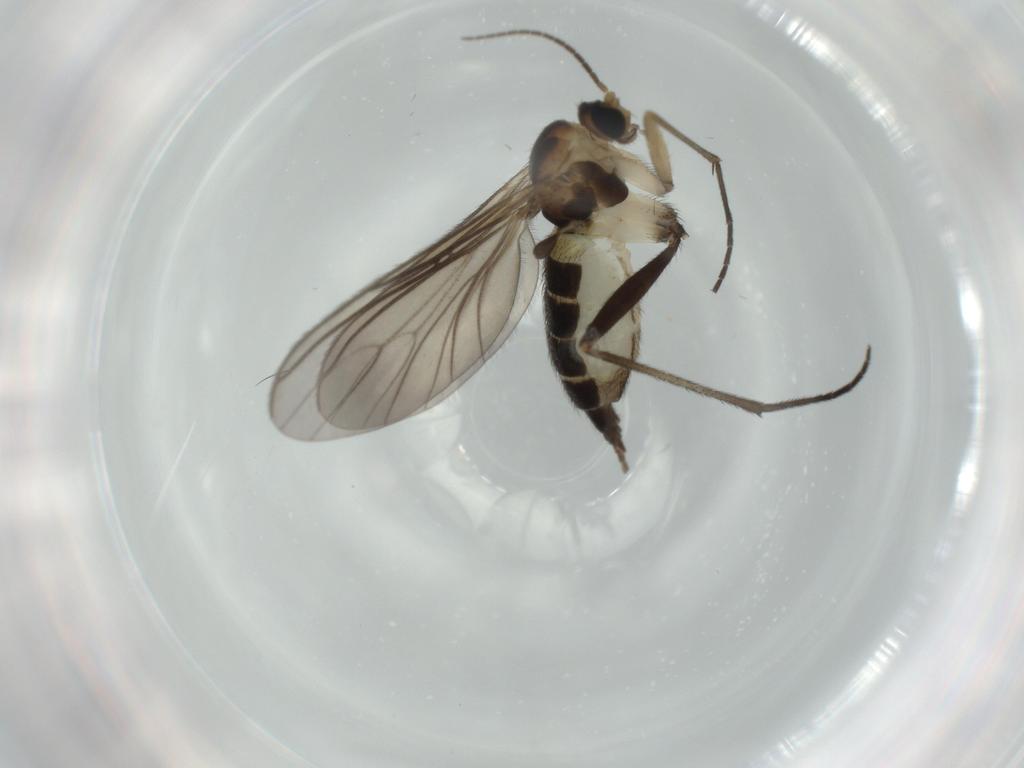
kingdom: Animalia
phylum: Arthropoda
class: Insecta
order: Diptera
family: Sciaridae
